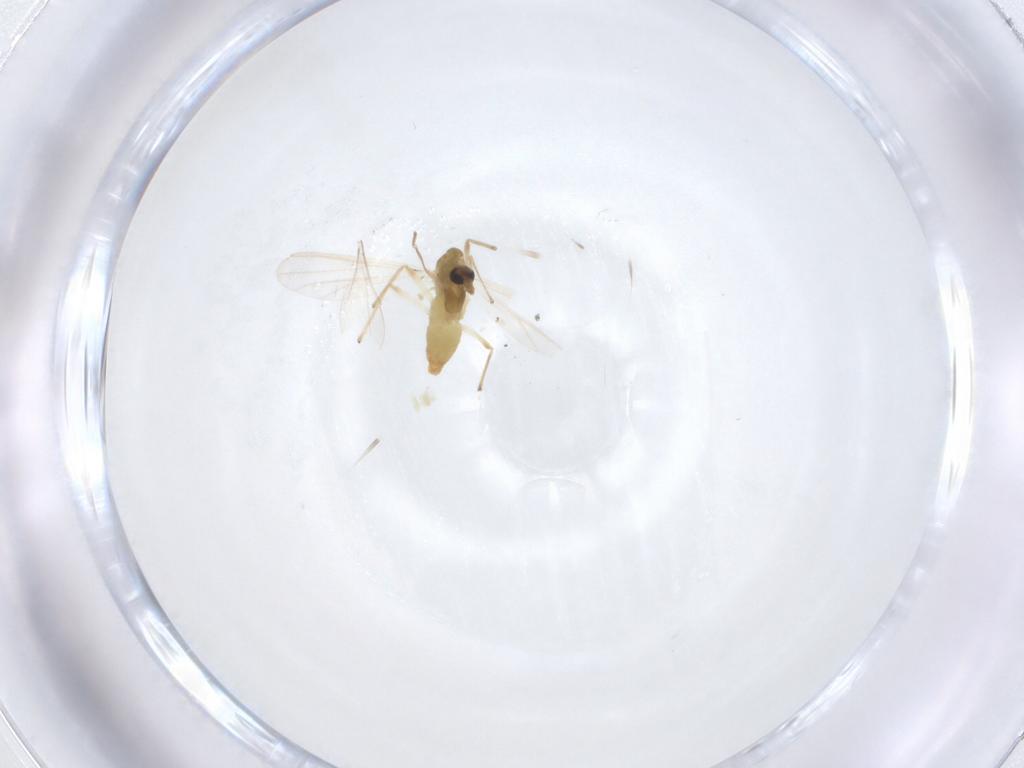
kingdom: Animalia
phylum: Arthropoda
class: Insecta
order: Diptera
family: Chironomidae
